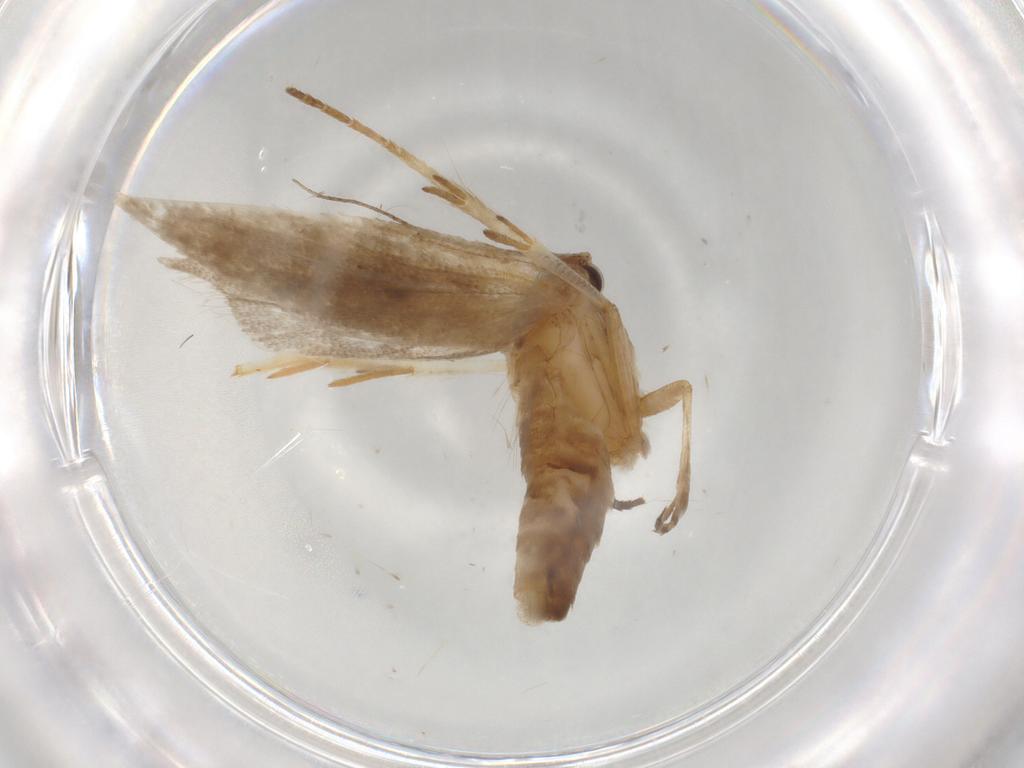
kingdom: Animalia
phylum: Arthropoda
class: Insecta
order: Lepidoptera
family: Gelechiidae
